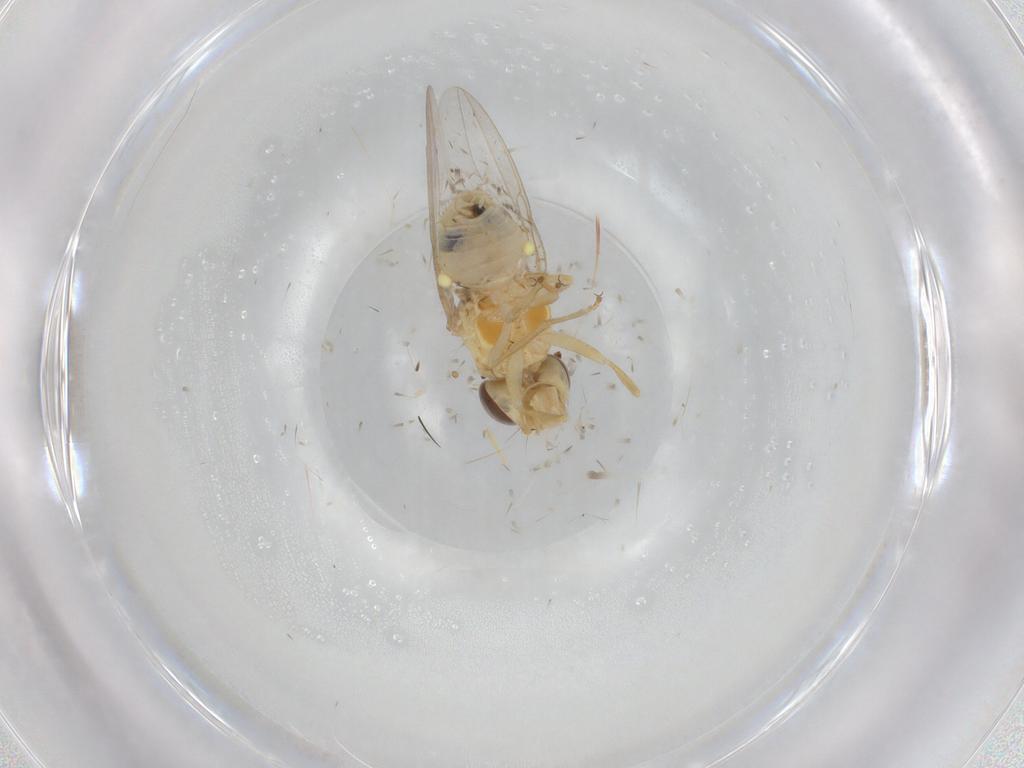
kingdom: Animalia
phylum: Arthropoda
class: Insecta
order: Diptera
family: Asteiidae
